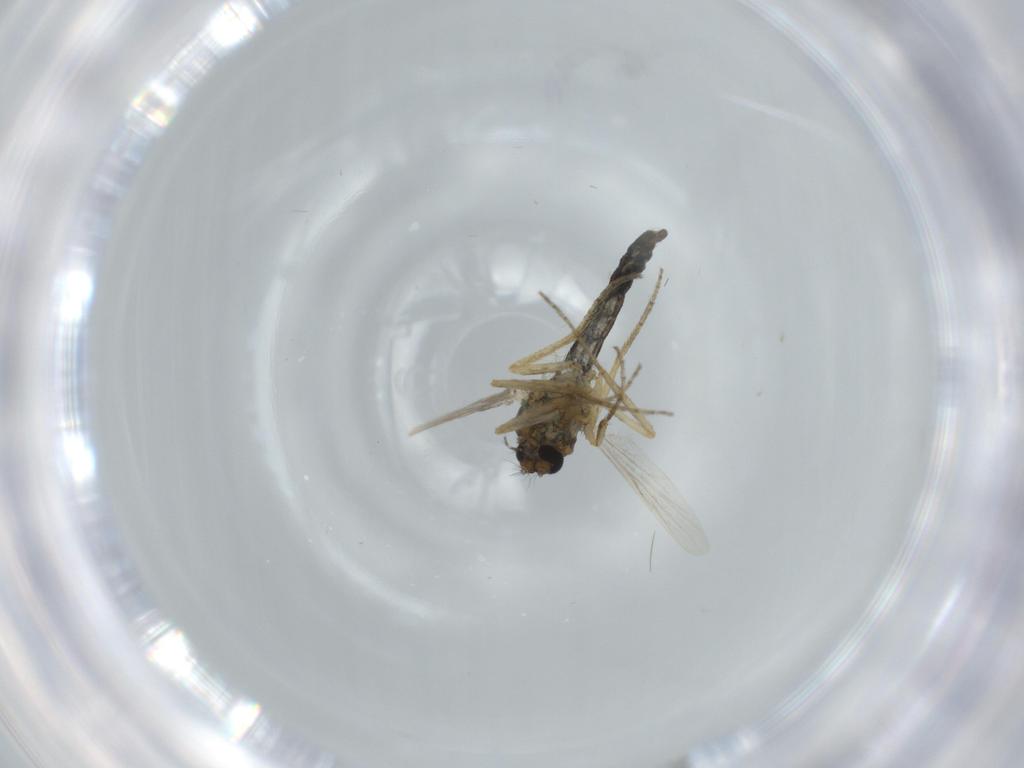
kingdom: Animalia
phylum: Arthropoda
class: Insecta
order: Diptera
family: Ceratopogonidae
